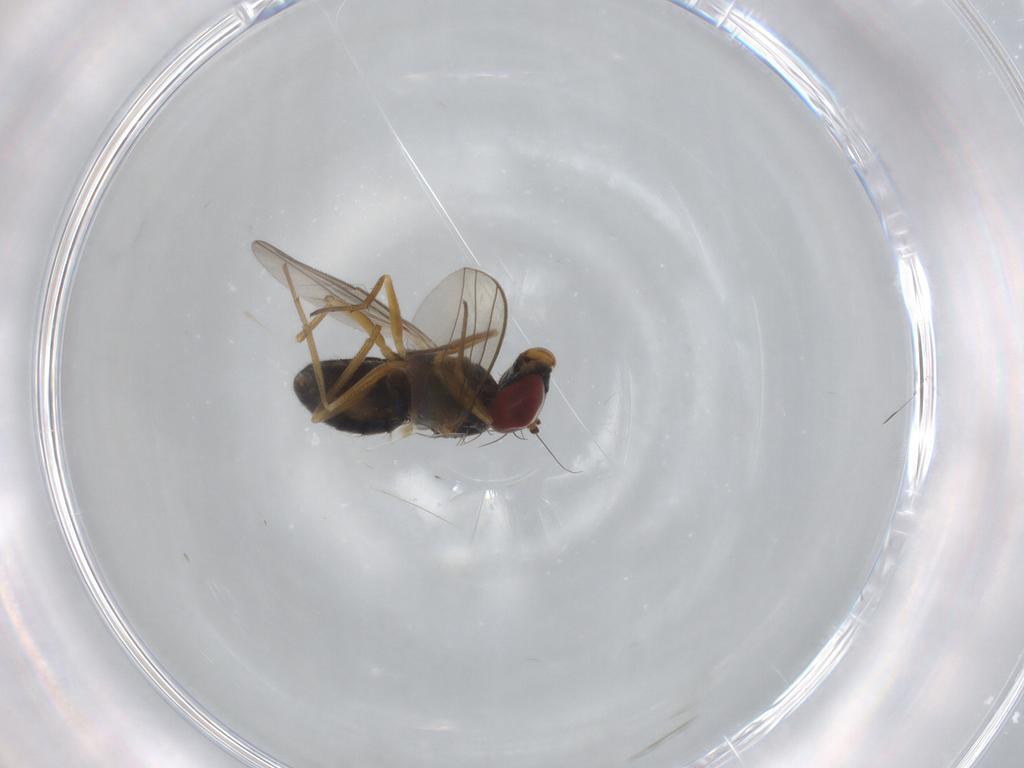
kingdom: Animalia
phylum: Arthropoda
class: Insecta
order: Diptera
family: Dolichopodidae
